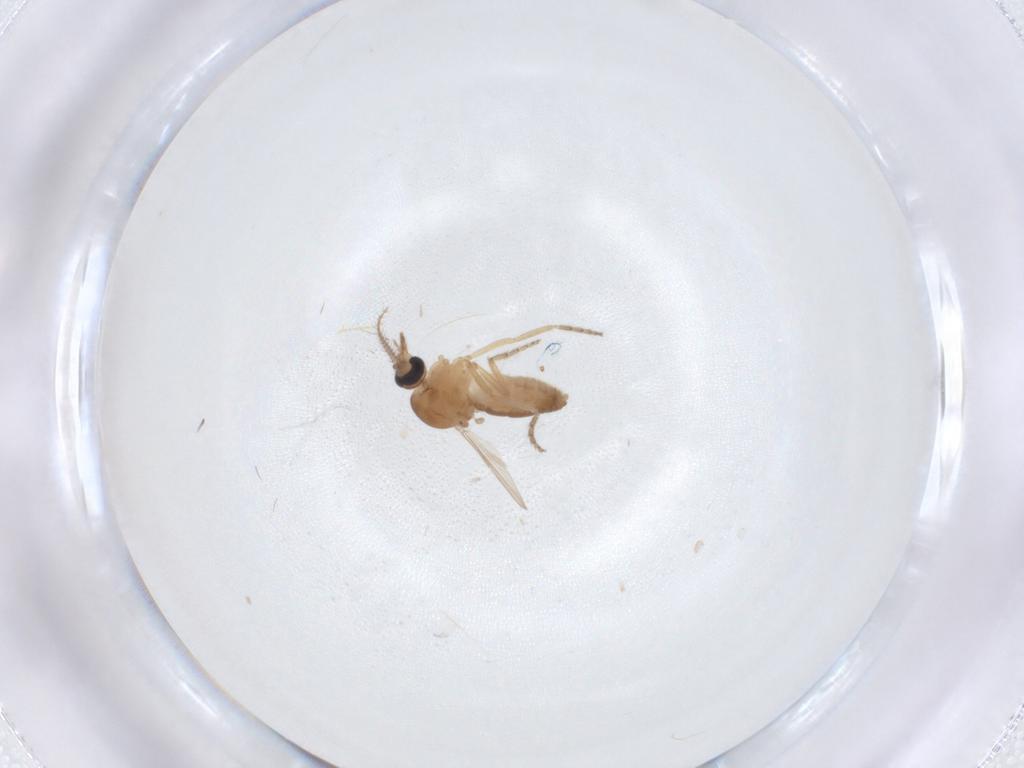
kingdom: Animalia
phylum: Arthropoda
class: Insecta
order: Diptera
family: Ceratopogonidae
